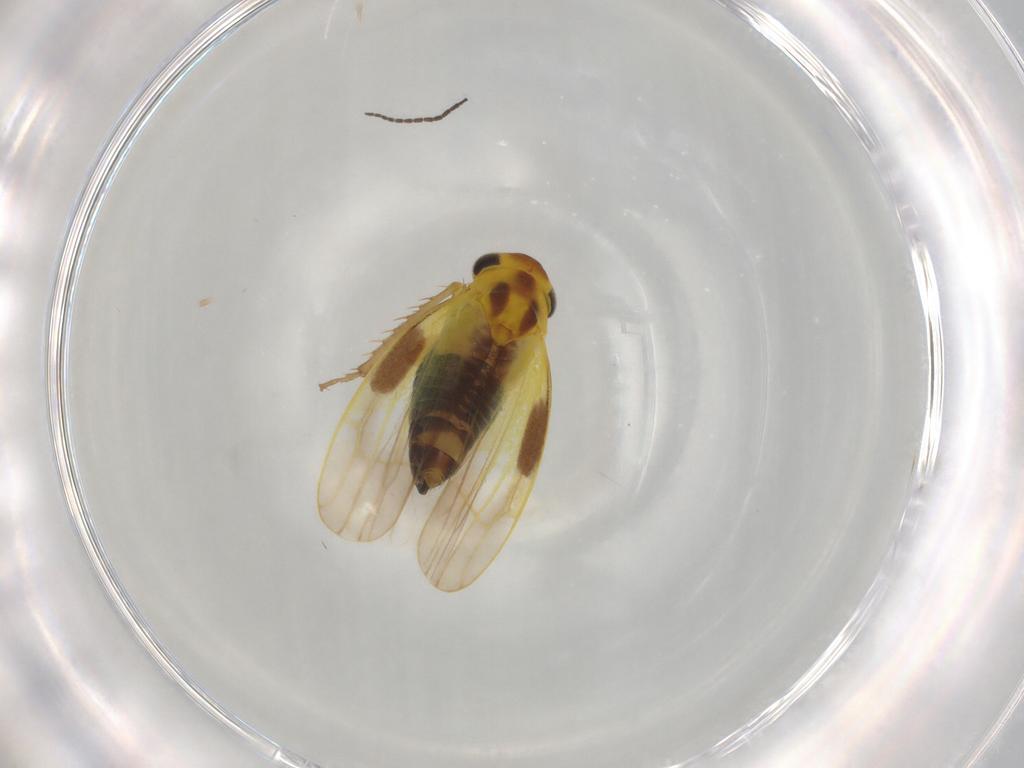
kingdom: Animalia
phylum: Arthropoda
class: Insecta
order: Hemiptera
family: Cicadellidae
